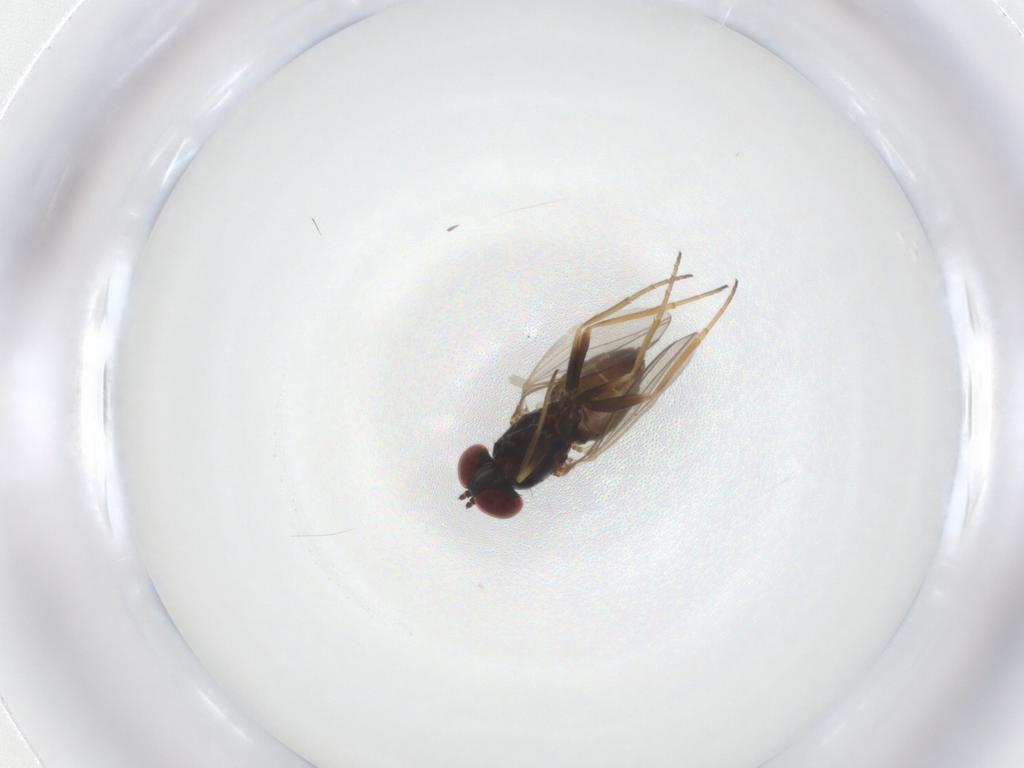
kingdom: Animalia
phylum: Arthropoda
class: Insecta
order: Diptera
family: Dolichopodidae
